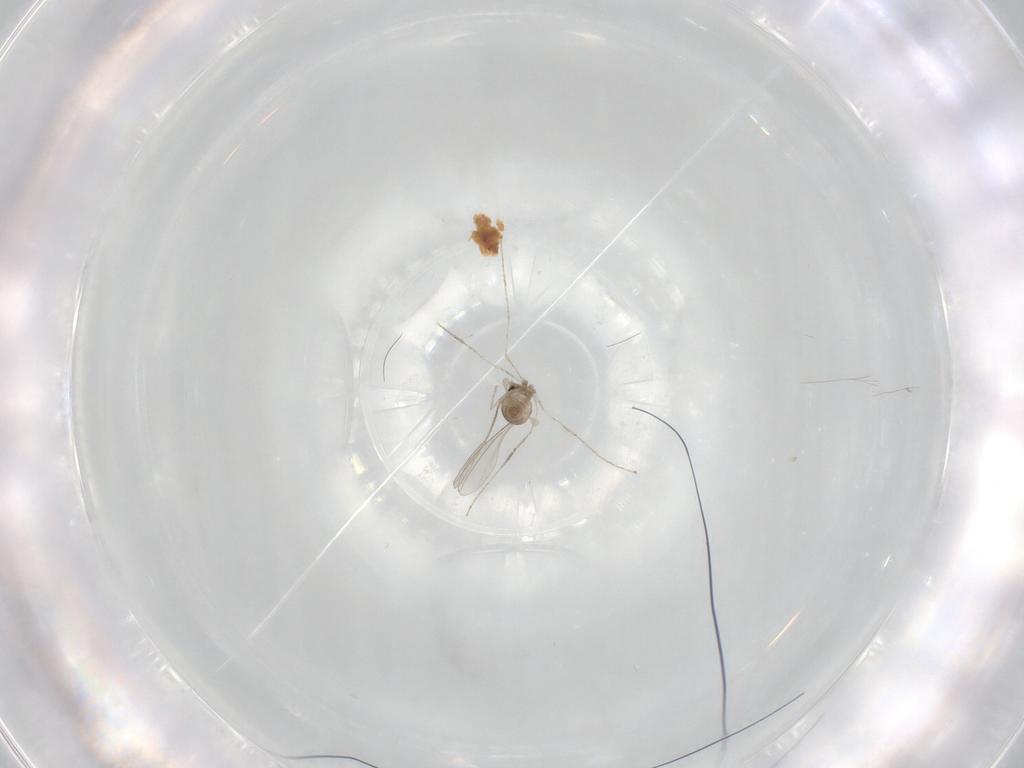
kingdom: Animalia
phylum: Arthropoda
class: Insecta
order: Diptera
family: Cecidomyiidae
